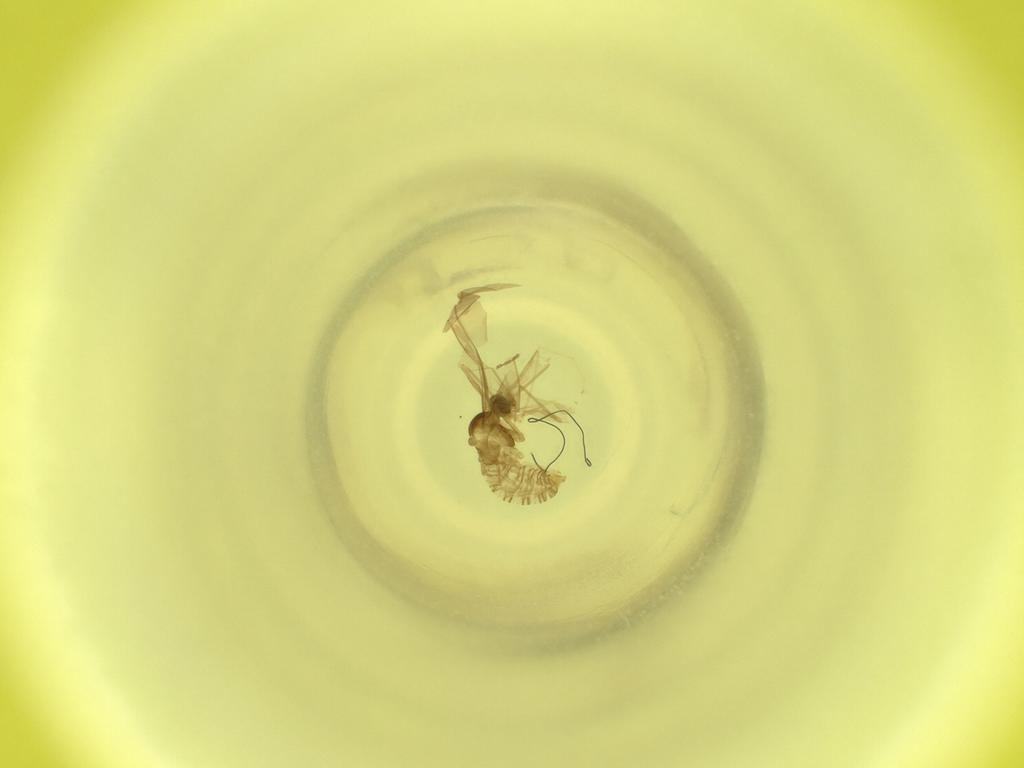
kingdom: Animalia
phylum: Arthropoda
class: Insecta
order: Diptera
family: Cecidomyiidae
